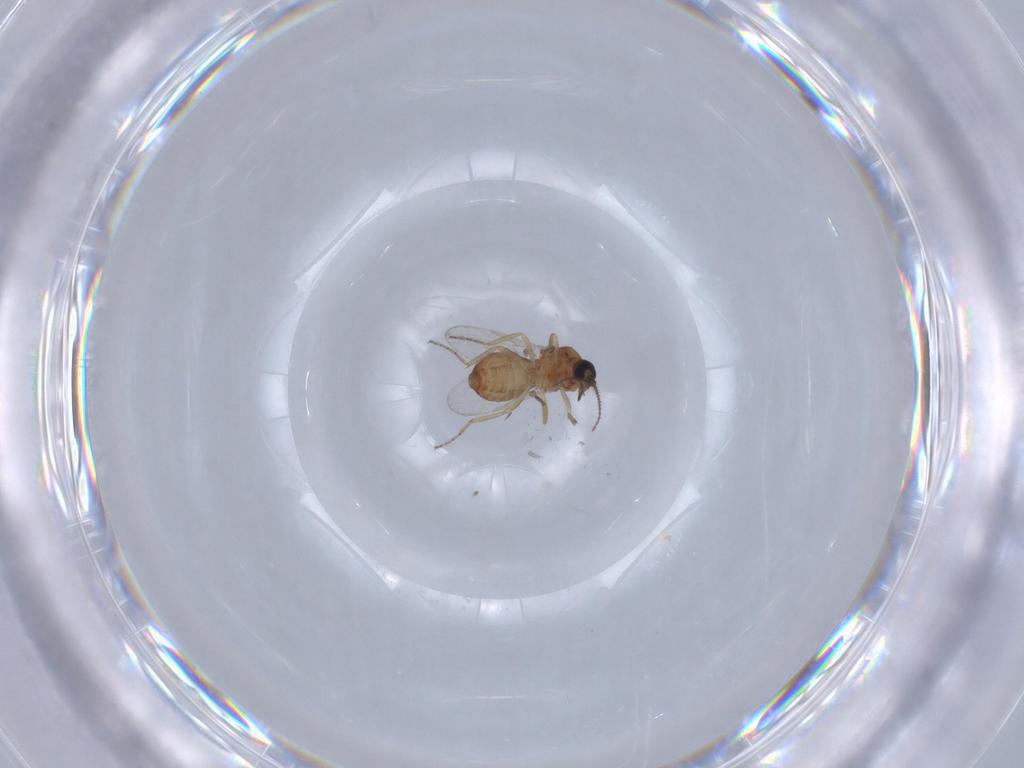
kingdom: Animalia
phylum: Arthropoda
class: Insecta
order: Diptera
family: Ceratopogonidae
